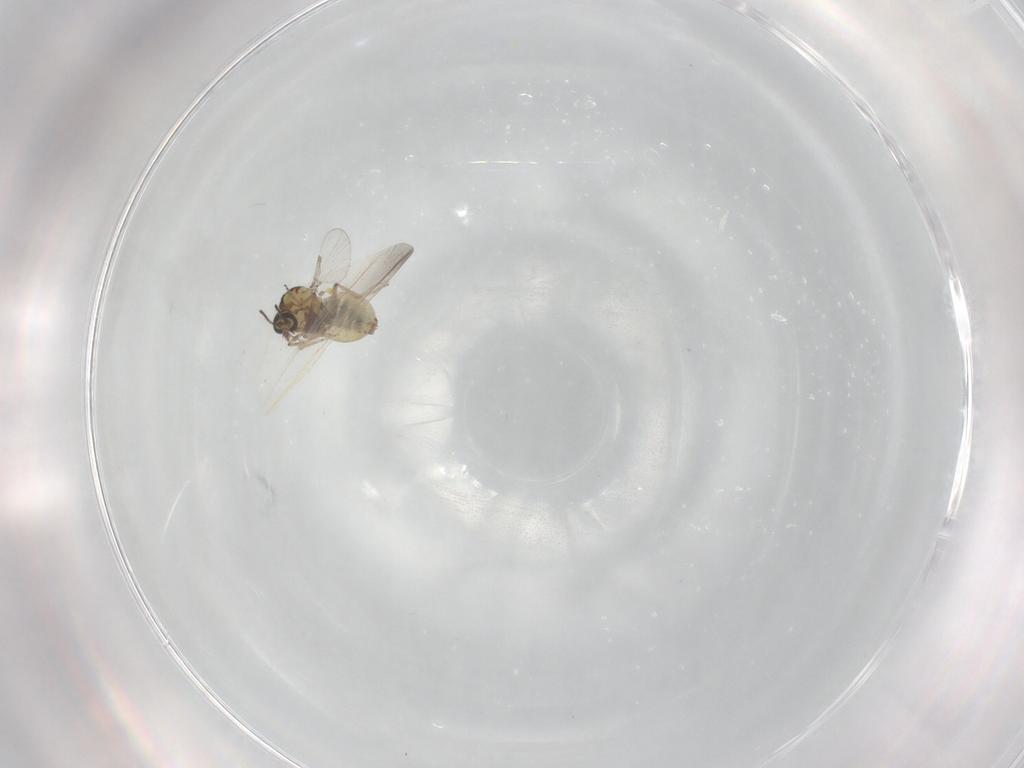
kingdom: Animalia
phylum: Arthropoda
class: Insecta
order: Diptera
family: Ceratopogonidae
